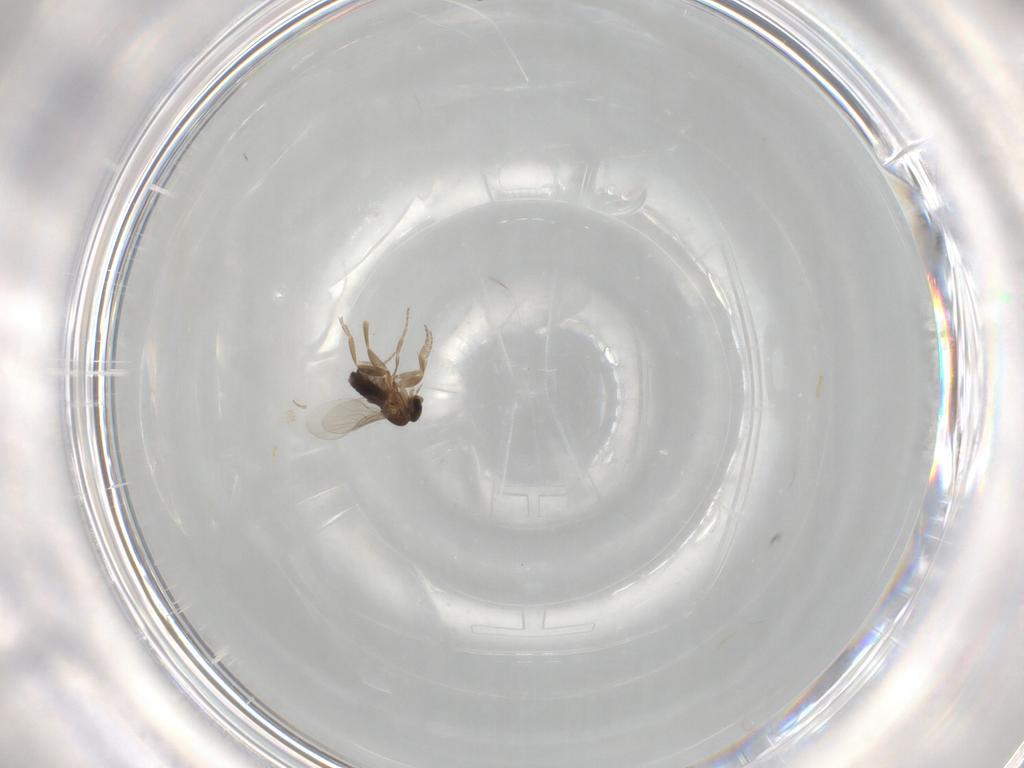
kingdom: Animalia
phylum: Arthropoda
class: Insecta
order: Diptera
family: Phoridae
